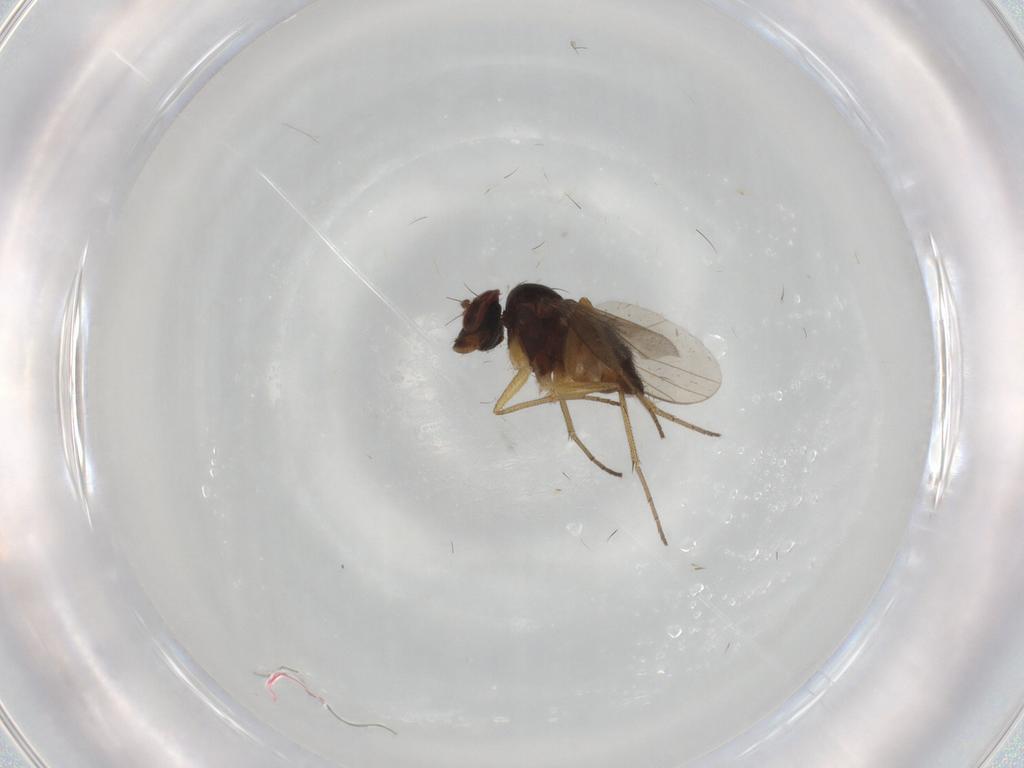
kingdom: Animalia
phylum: Arthropoda
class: Insecta
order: Diptera
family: Dolichopodidae
